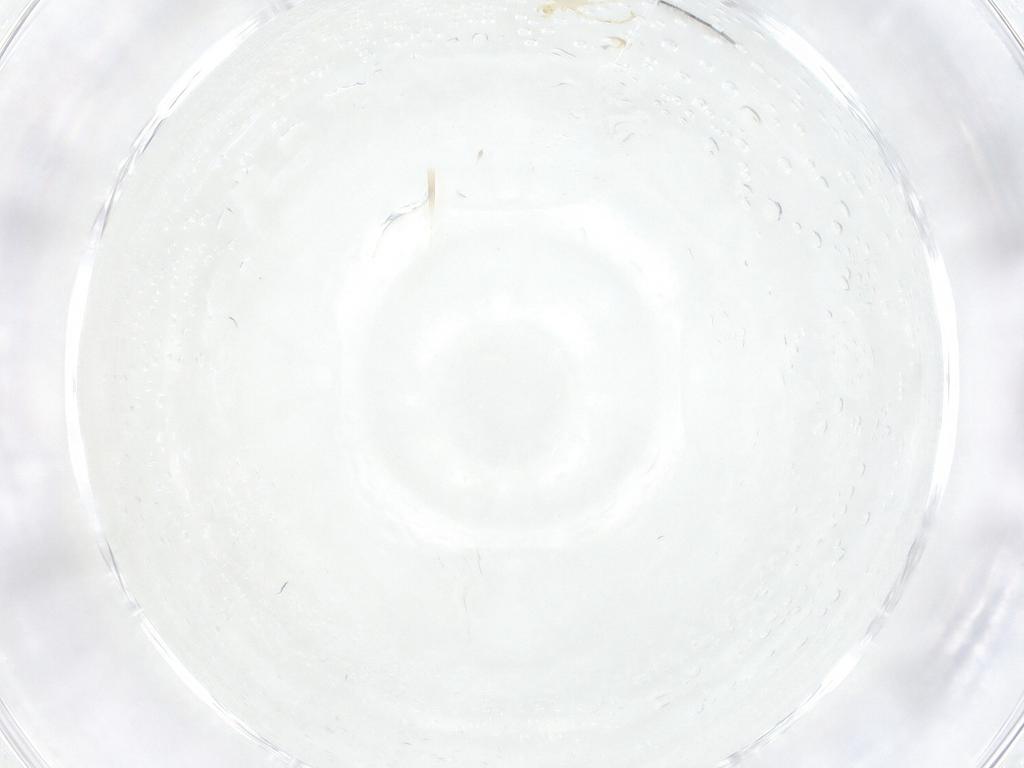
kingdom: Animalia
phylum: Arthropoda
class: Arachnida
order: Trombidiformes
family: Erythraeidae
